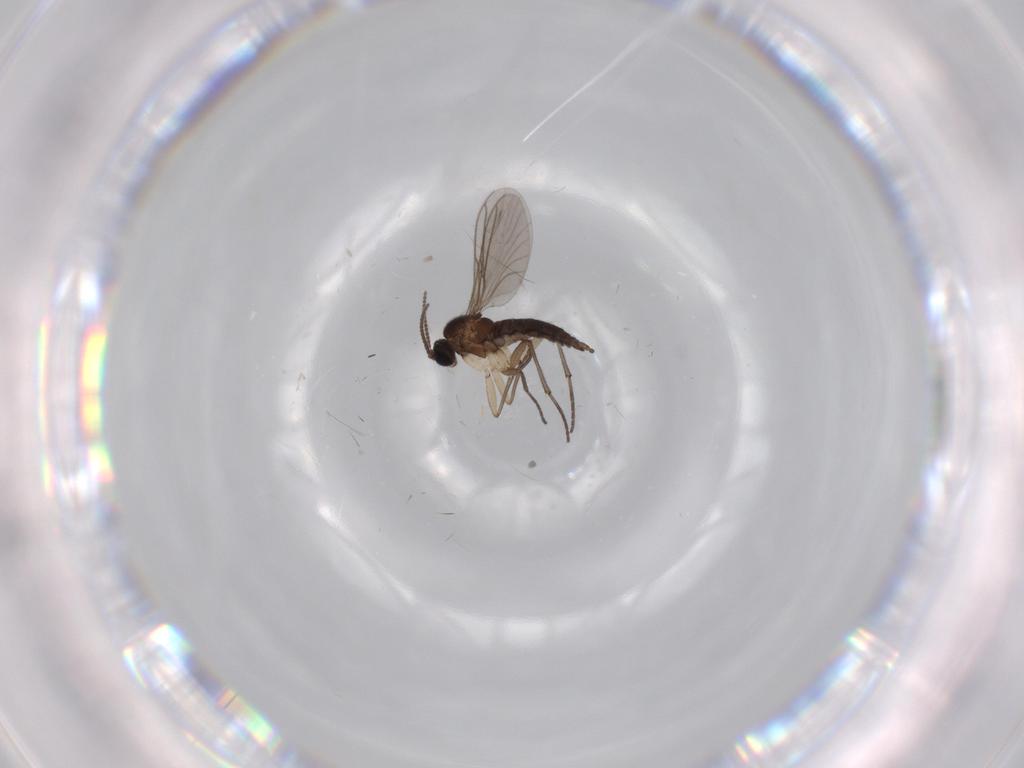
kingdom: Animalia
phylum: Arthropoda
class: Insecta
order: Diptera
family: Sciaridae
